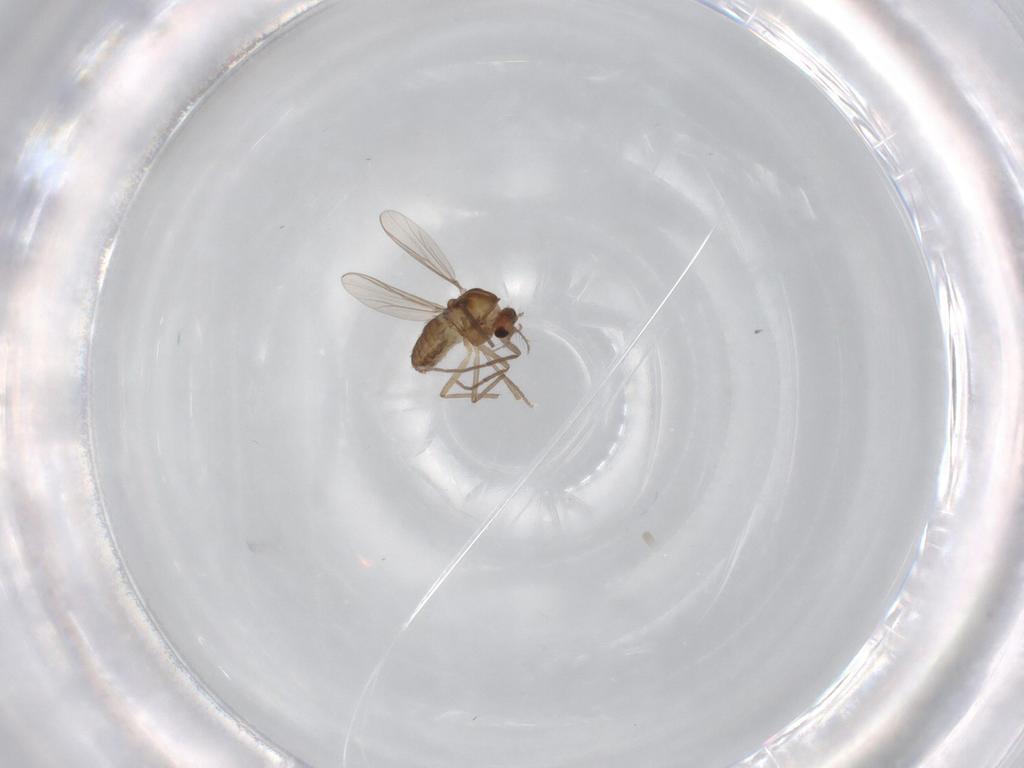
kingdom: Animalia
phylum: Arthropoda
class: Insecta
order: Diptera
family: Chironomidae
